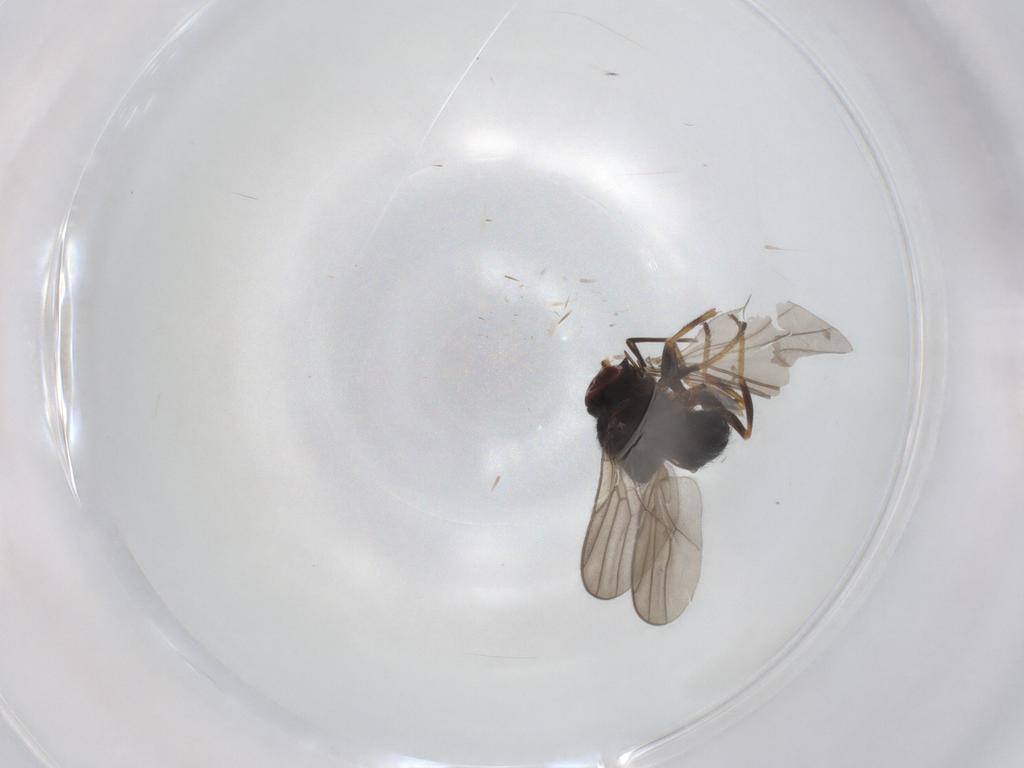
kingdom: Animalia
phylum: Arthropoda
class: Insecta
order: Diptera
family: Chloropidae
